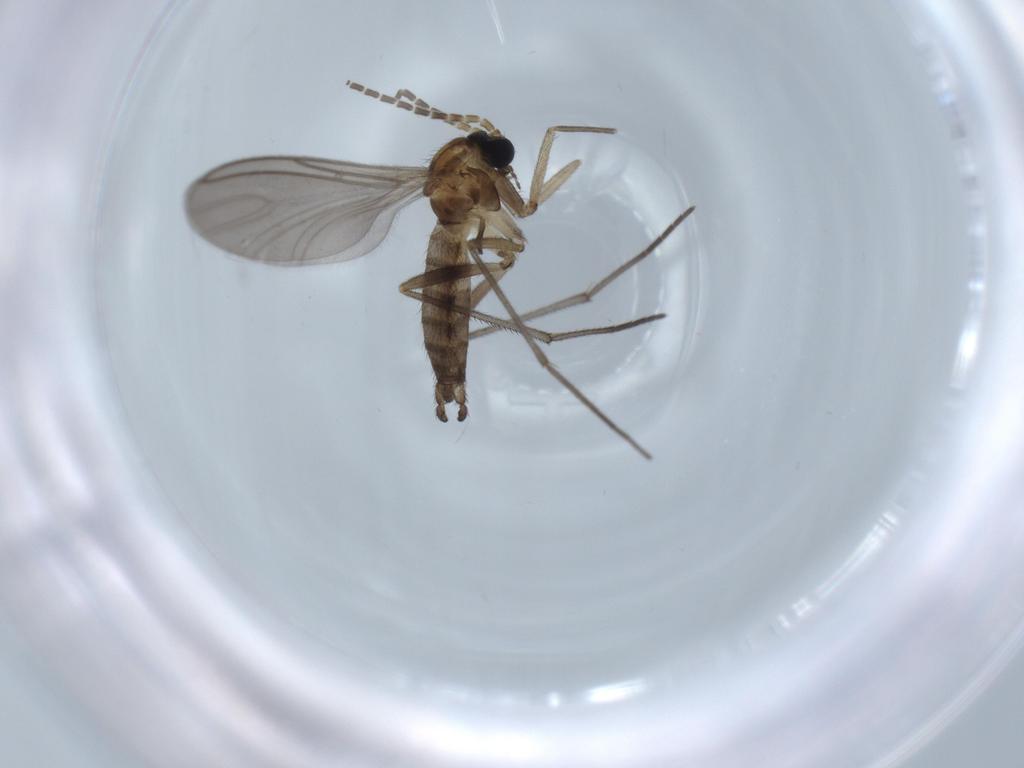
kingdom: Animalia
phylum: Arthropoda
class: Insecta
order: Diptera
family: Sciaridae
